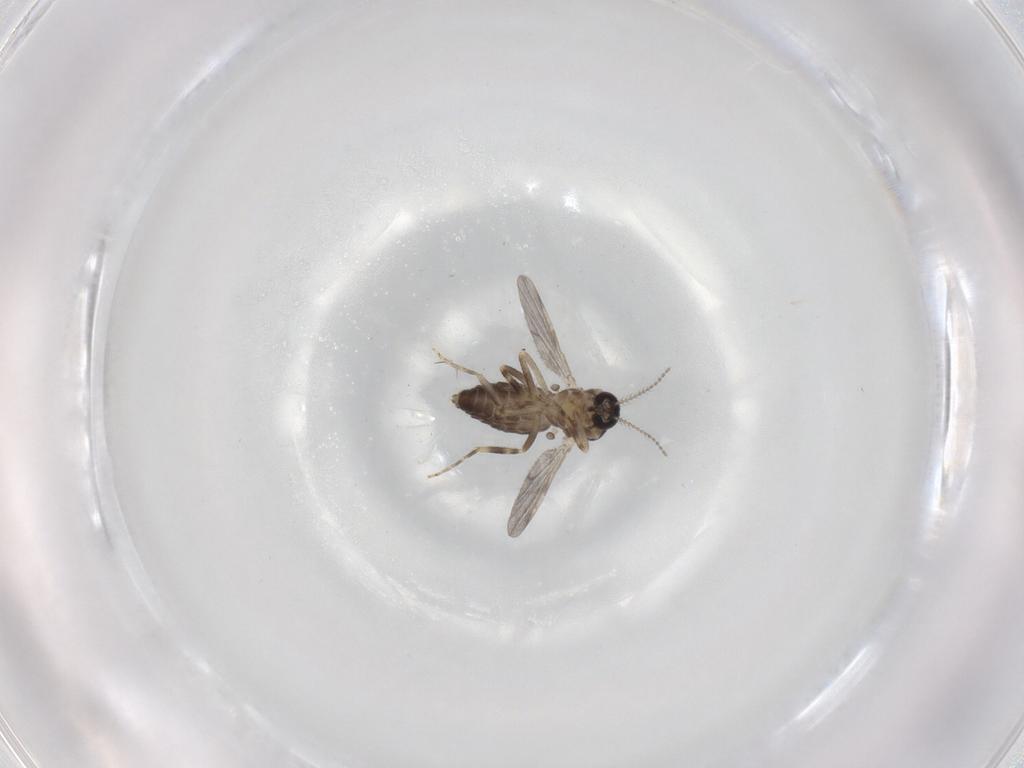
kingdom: Animalia
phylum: Arthropoda
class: Insecta
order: Diptera
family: Ceratopogonidae
